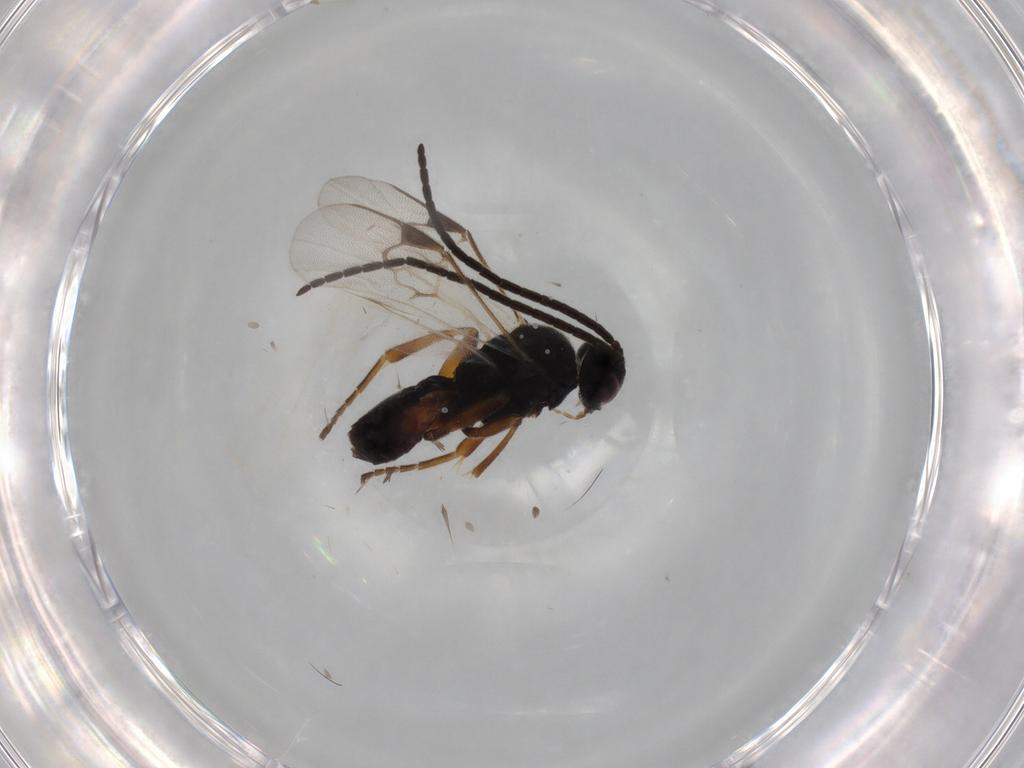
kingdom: Animalia
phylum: Arthropoda
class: Insecta
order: Hymenoptera
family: Braconidae
